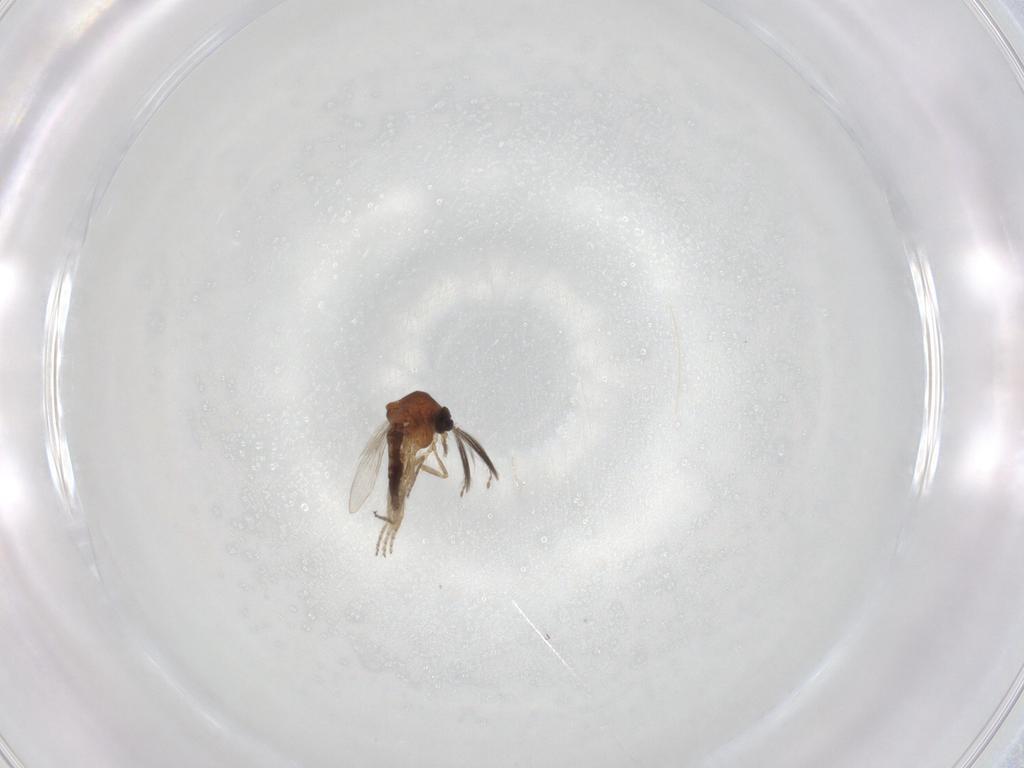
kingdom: Animalia
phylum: Arthropoda
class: Insecta
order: Diptera
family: Ceratopogonidae
